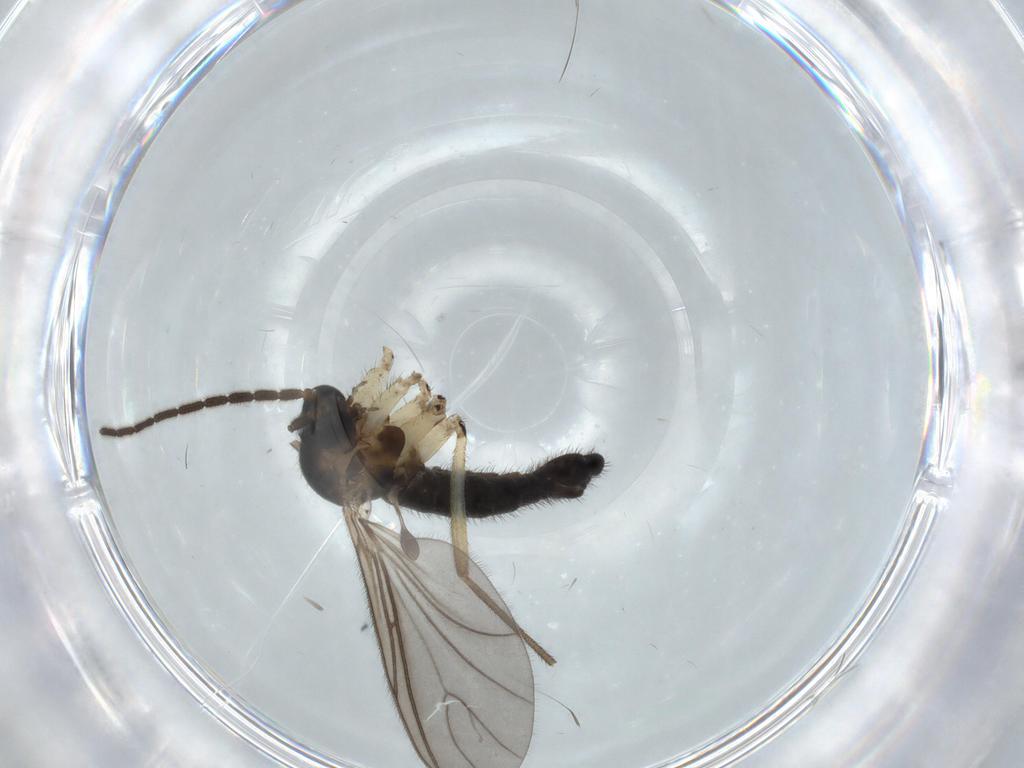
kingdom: Animalia
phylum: Arthropoda
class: Insecta
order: Diptera
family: Sciaridae
